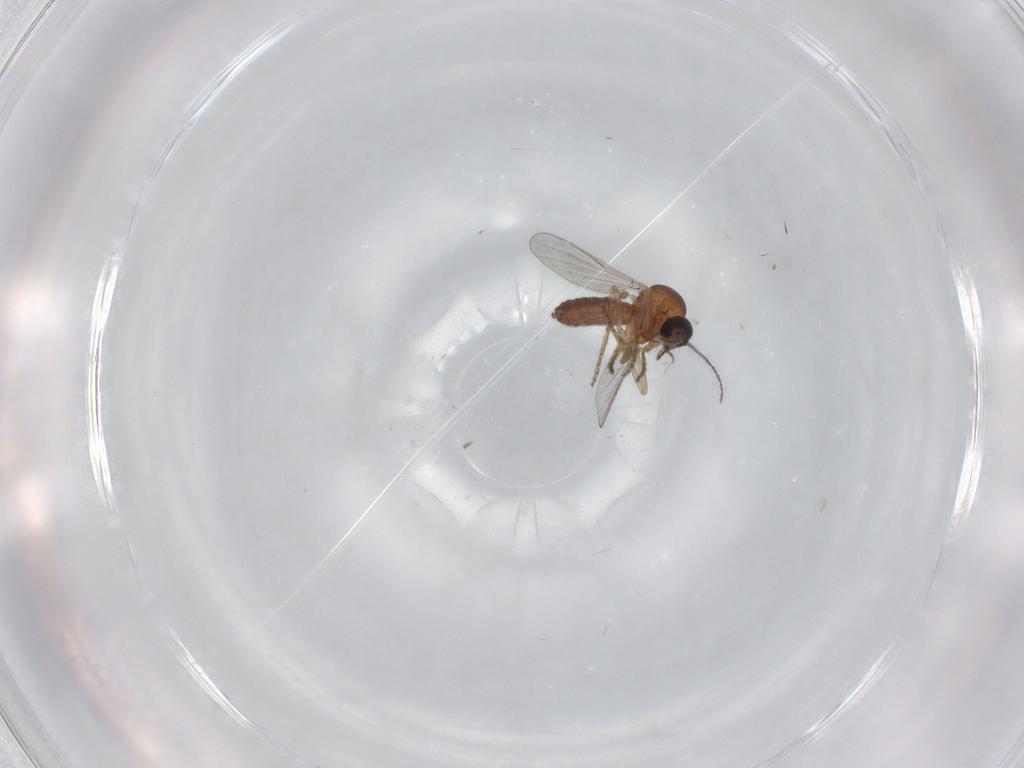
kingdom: Animalia
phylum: Arthropoda
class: Insecta
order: Diptera
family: Ceratopogonidae
